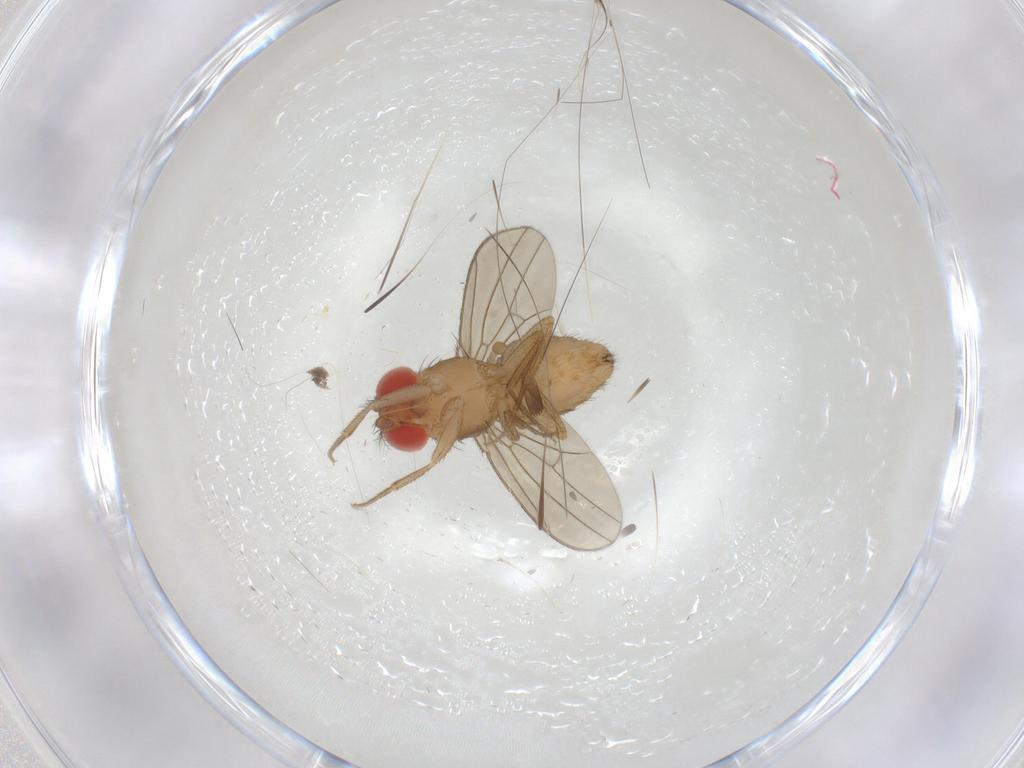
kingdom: Animalia
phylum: Arthropoda
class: Insecta
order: Diptera
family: Drosophilidae
